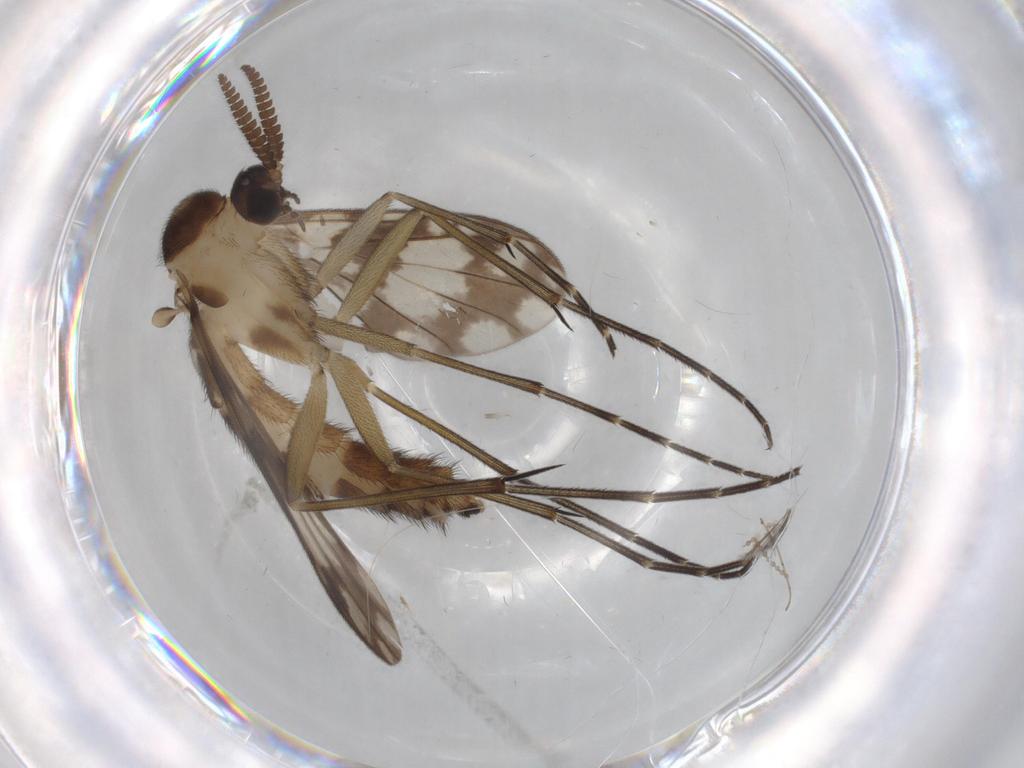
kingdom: Animalia
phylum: Arthropoda
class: Insecta
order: Diptera
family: Keroplatidae
